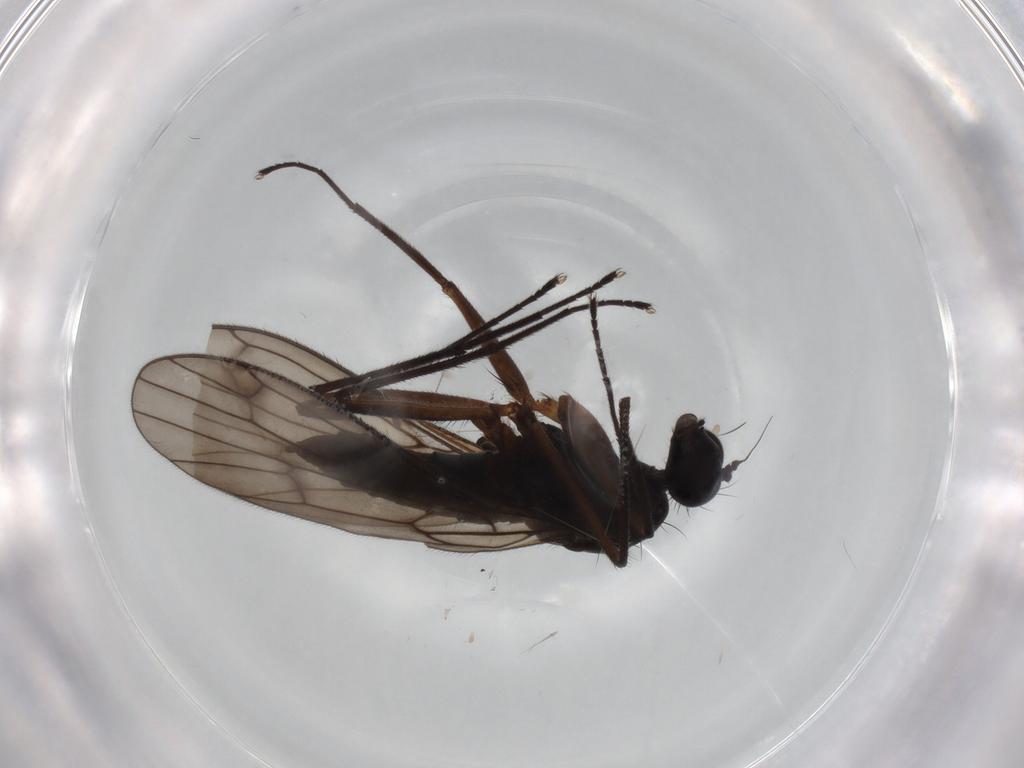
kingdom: Animalia
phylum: Arthropoda
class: Insecta
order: Diptera
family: Empididae
